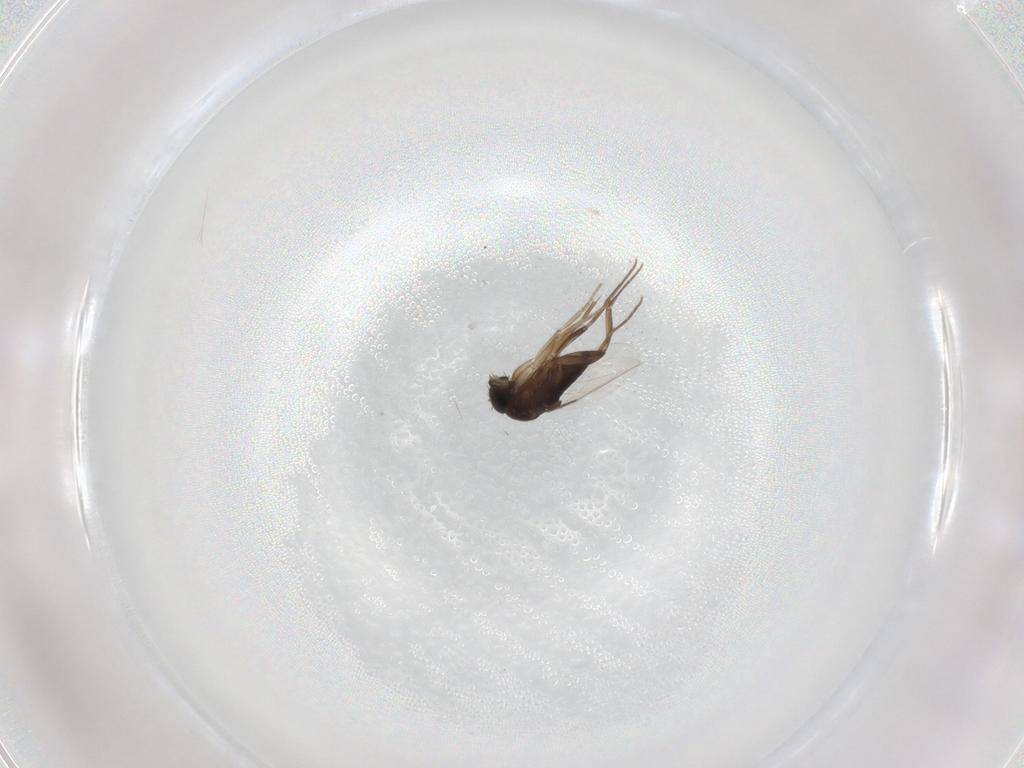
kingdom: Animalia
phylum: Arthropoda
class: Insecta
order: Diptera
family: Phoridae
